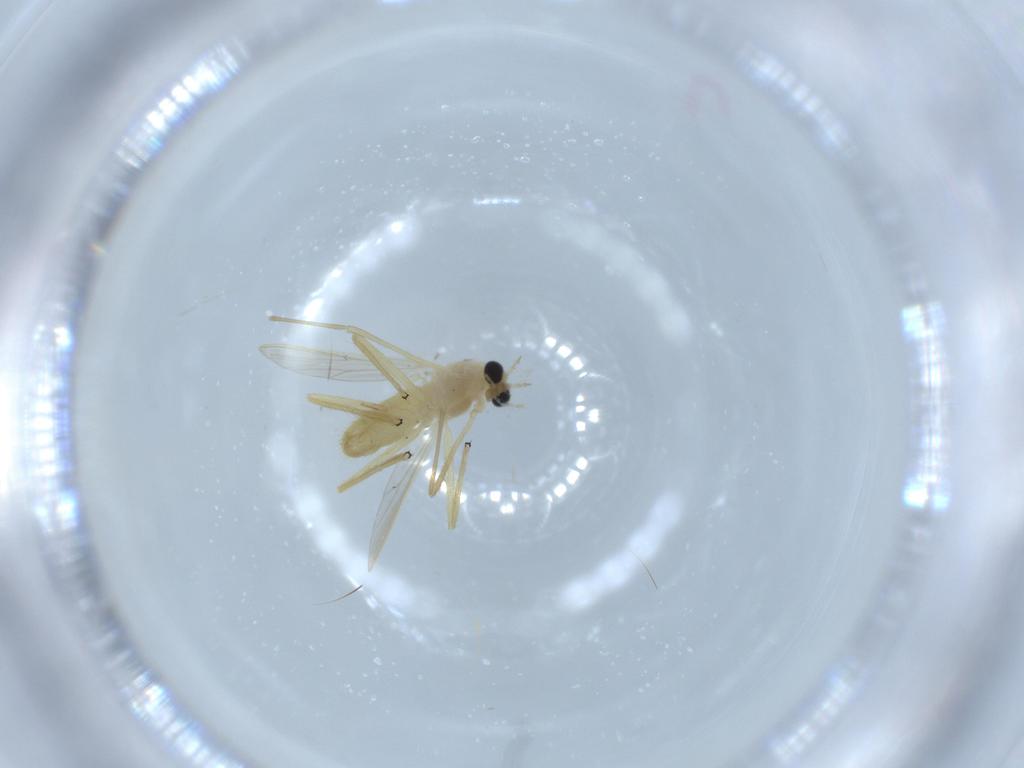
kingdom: Animalia
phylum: Arthropoda
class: Insecta
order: Diptera
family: Chironomidae
